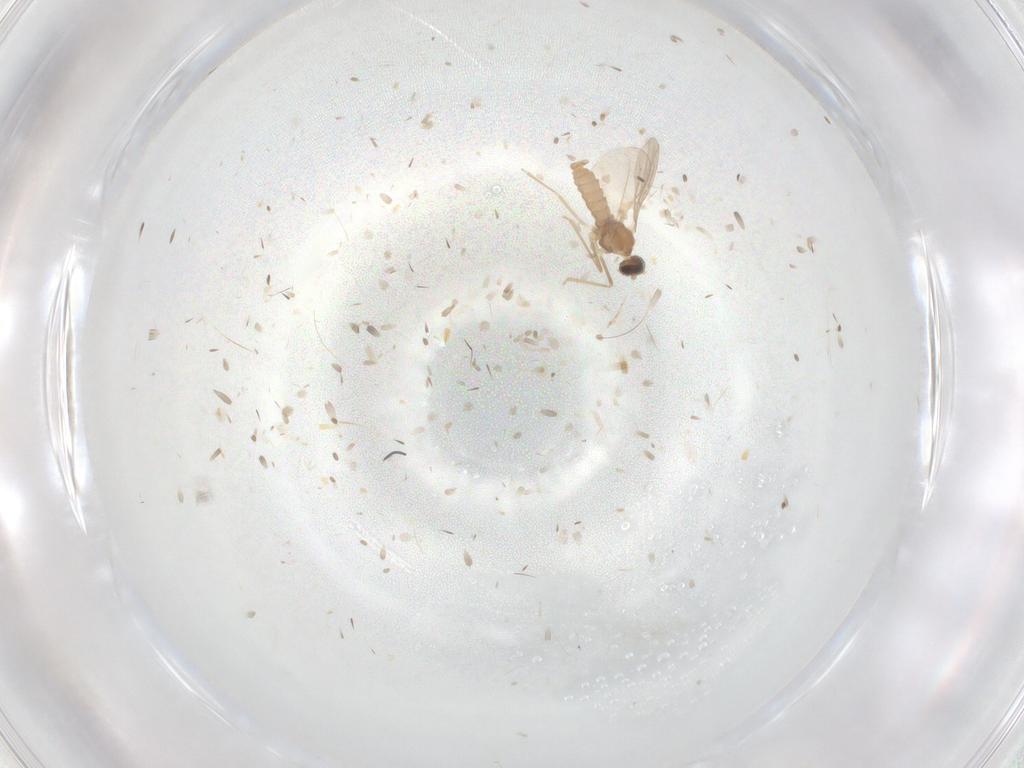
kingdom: Animalia
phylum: Arthropoda
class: Insecta
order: Diptera
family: Cecidomyiidae
